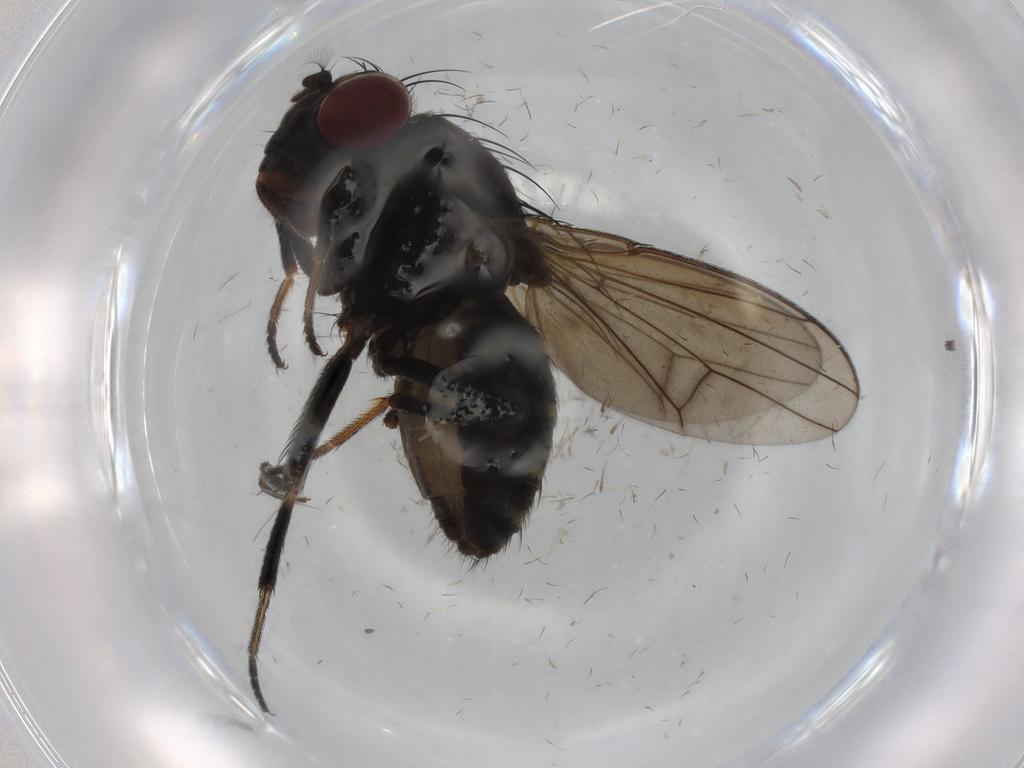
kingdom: Animalia
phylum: Arthropoda
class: Insecta
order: Diptera
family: Ephydridae
